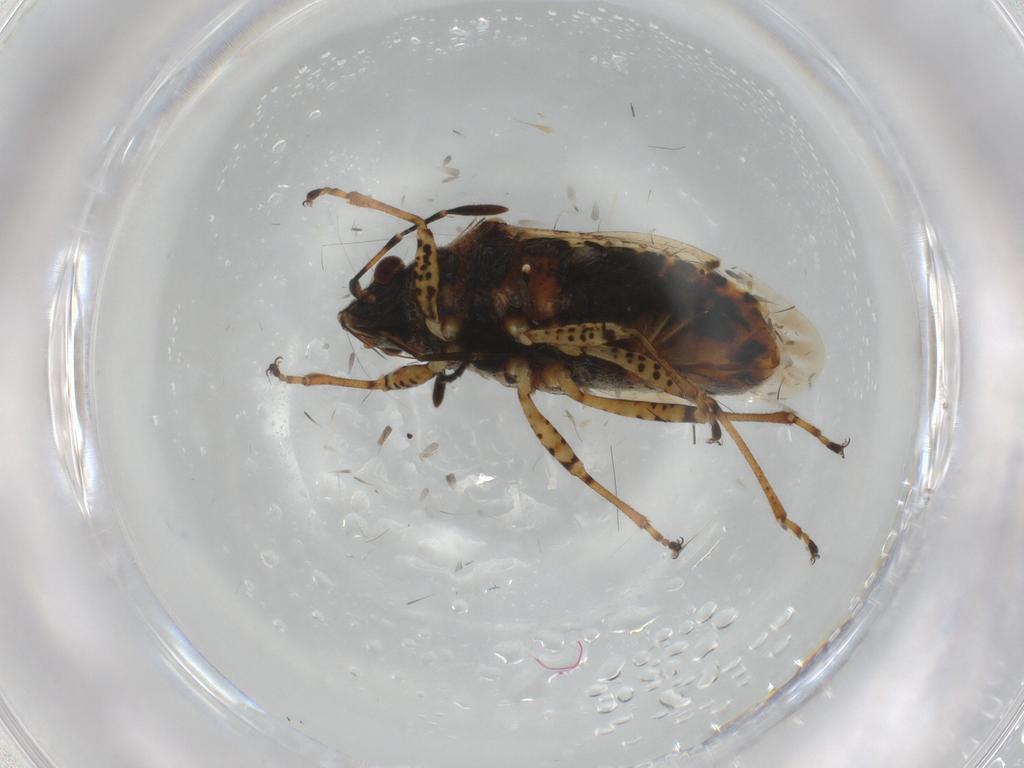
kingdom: Animalia
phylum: Arthropoda
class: Insecta
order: Hemiptera
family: Lygaeidae
